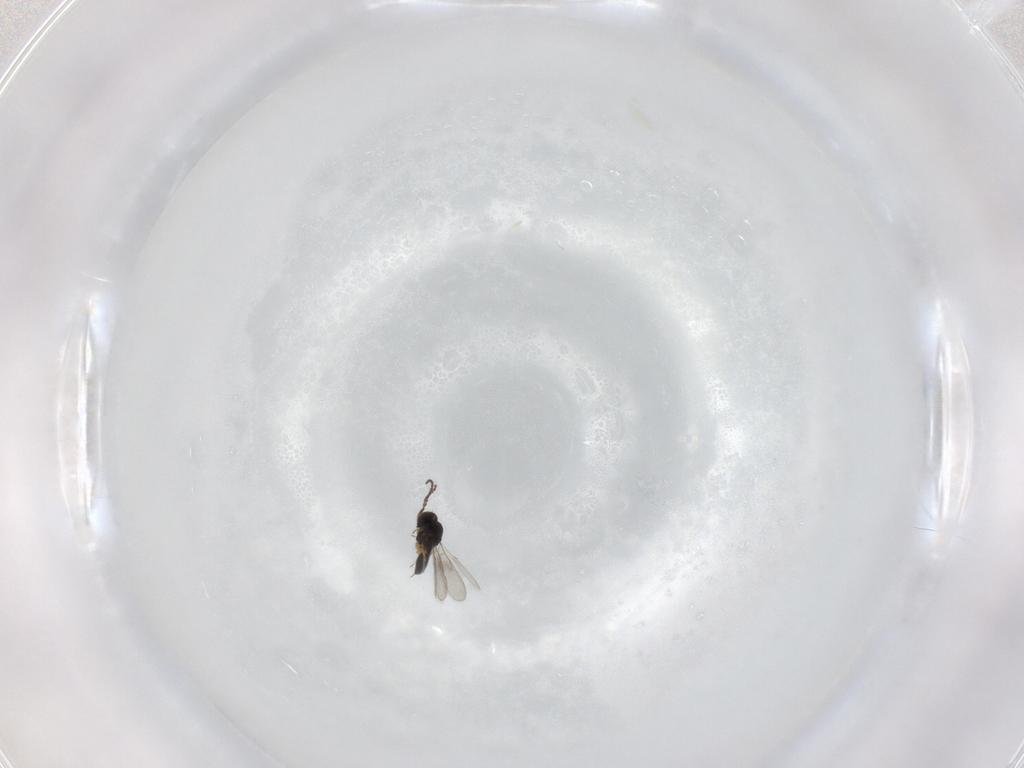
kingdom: Animalia
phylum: Arthropoda
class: Insecta
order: Hymenoptera
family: Scelionidae
